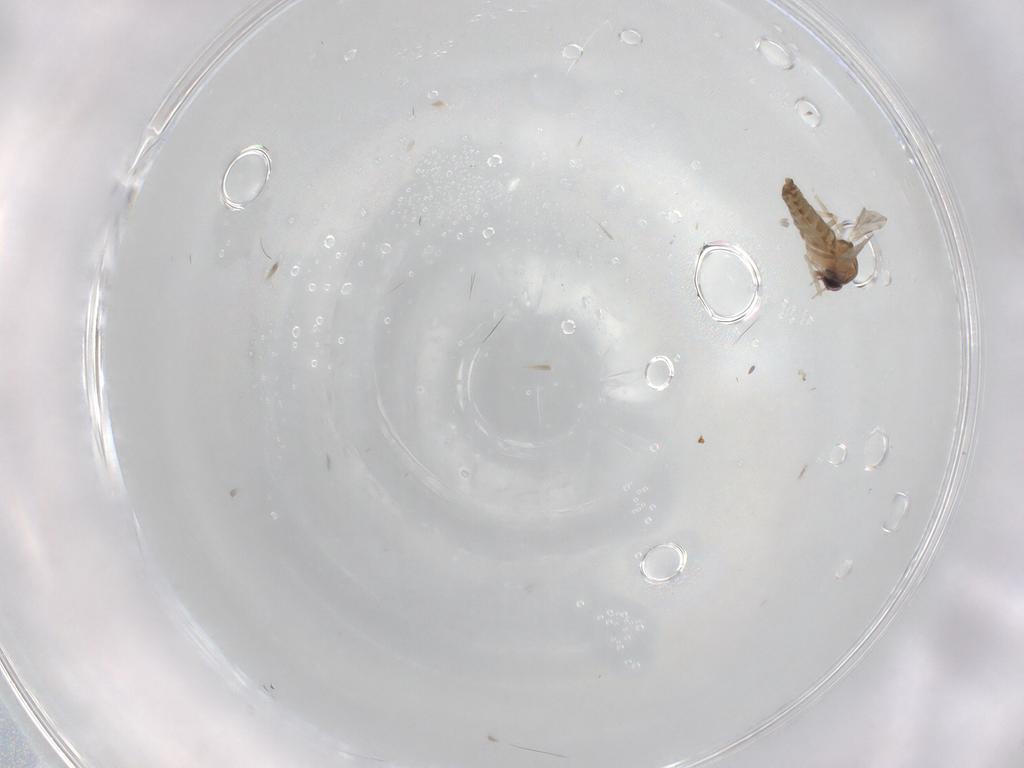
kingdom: Animalia
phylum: Arthropoda
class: Insecta
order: Diptera
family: Ceratopogonidae
